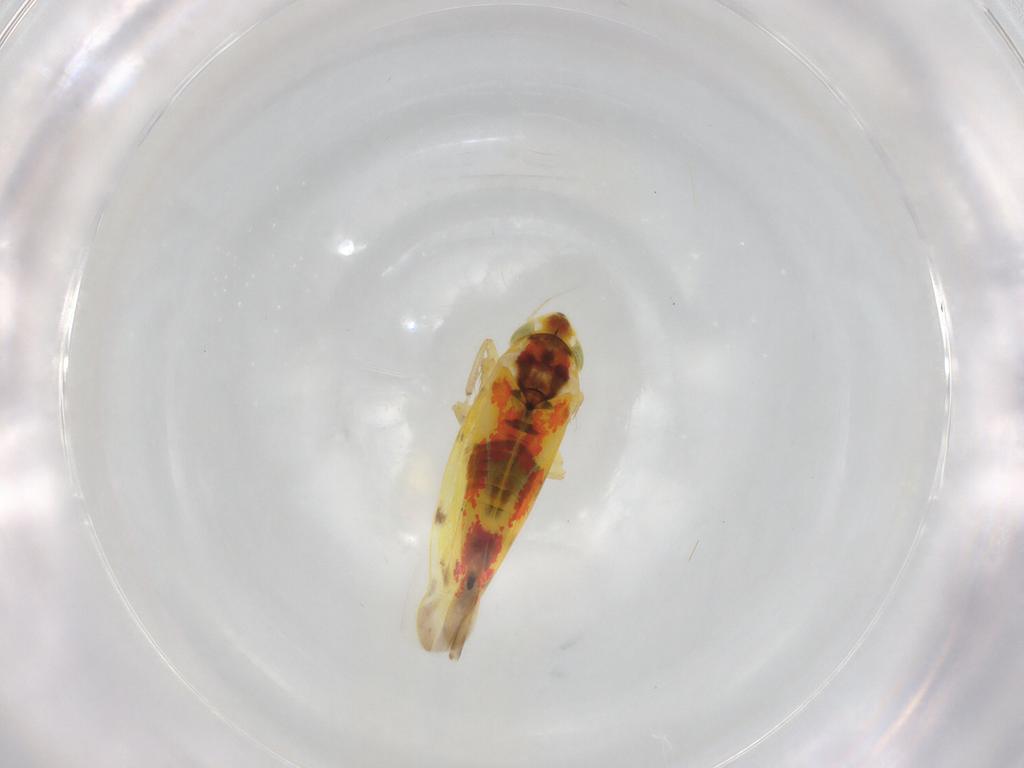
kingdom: Animalia
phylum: Arthropoda
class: Insecta
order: Hemiptera
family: Cicadellidae
